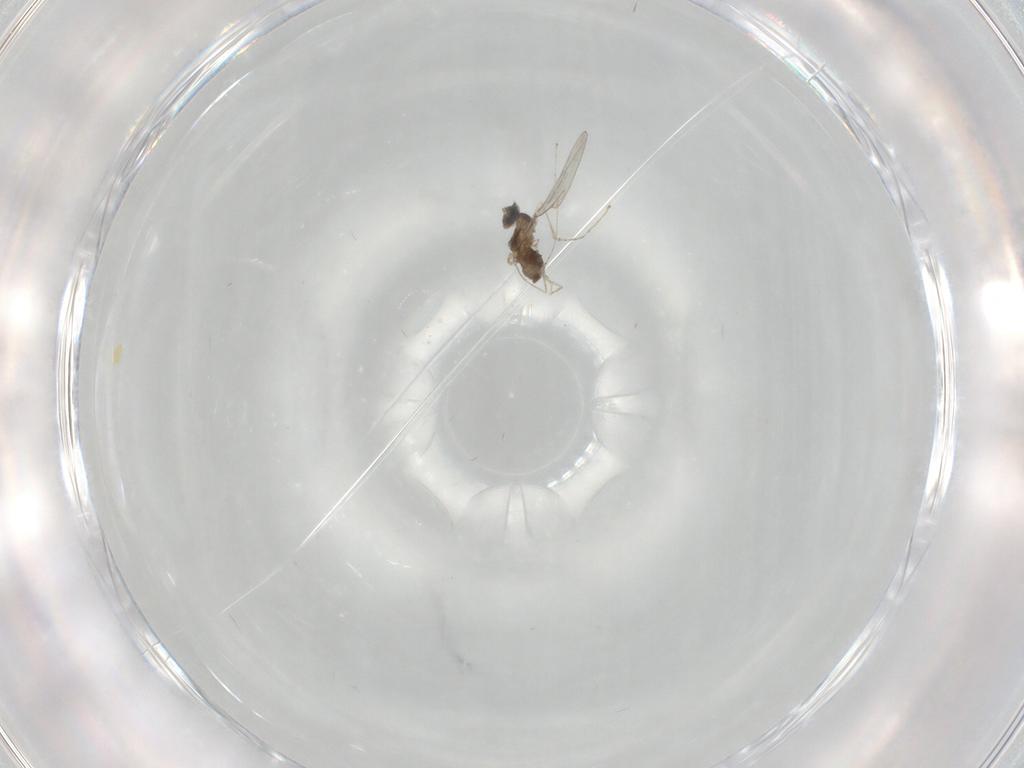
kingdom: Animalia
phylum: Arthropoda
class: Insecta
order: Diptera
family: Cecidomyiidae
